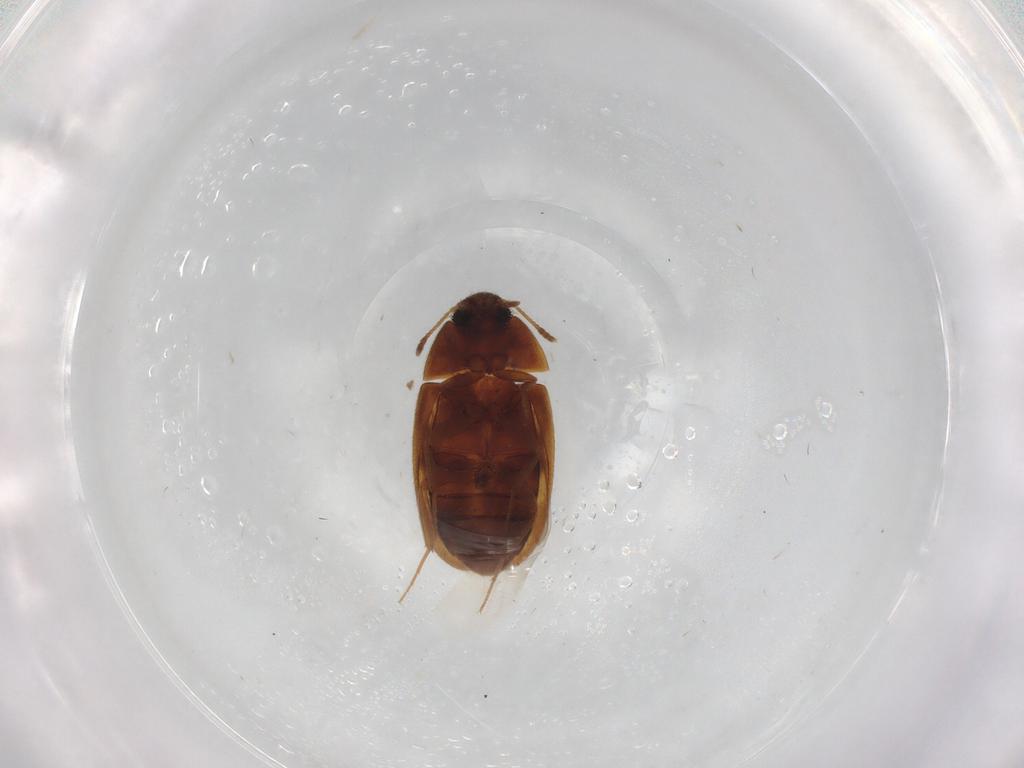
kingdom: Animalia
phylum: Arthropoda
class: Insecta
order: Coleoptera
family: Mycetophagidae
